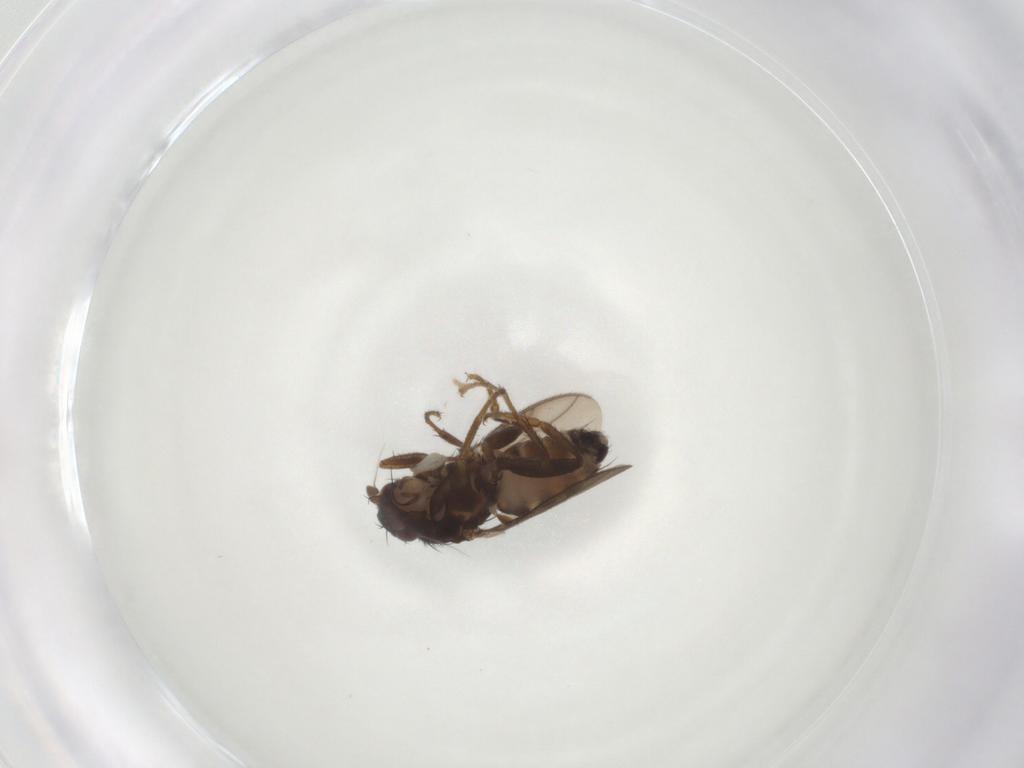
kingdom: Animalia
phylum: Arthropoda
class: Insecta
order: Diptera
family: Sphaeroceridae
